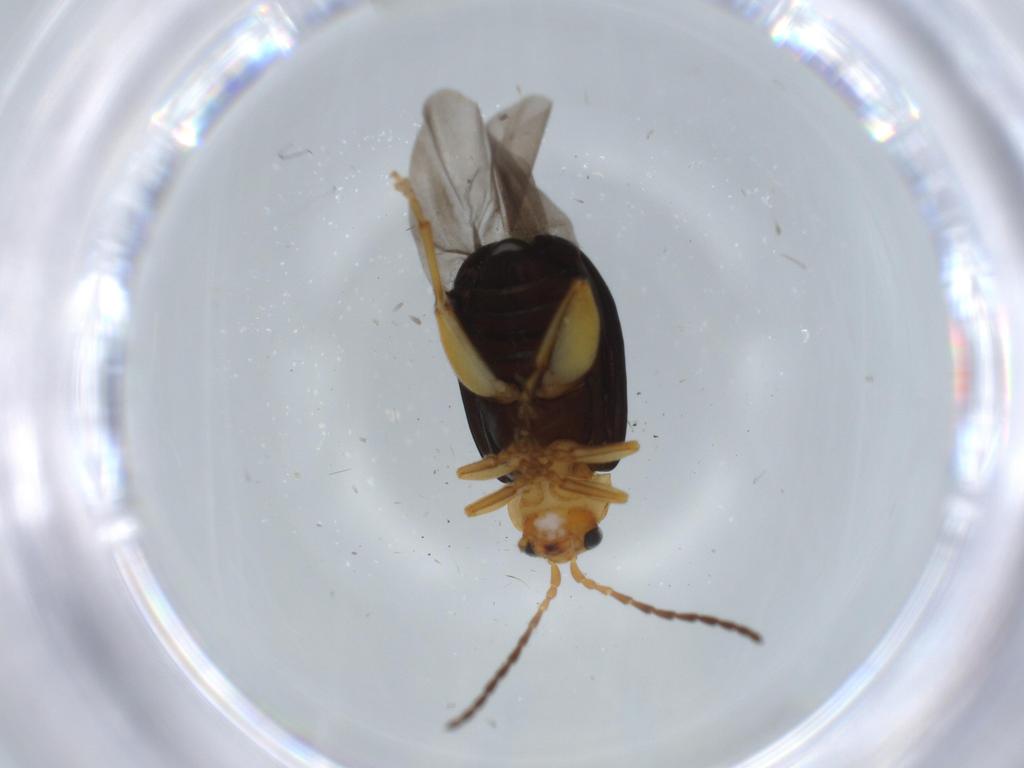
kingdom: Animalia
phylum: Arthropoda
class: Insecta
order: Coleoptera
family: Chrysomelidae
